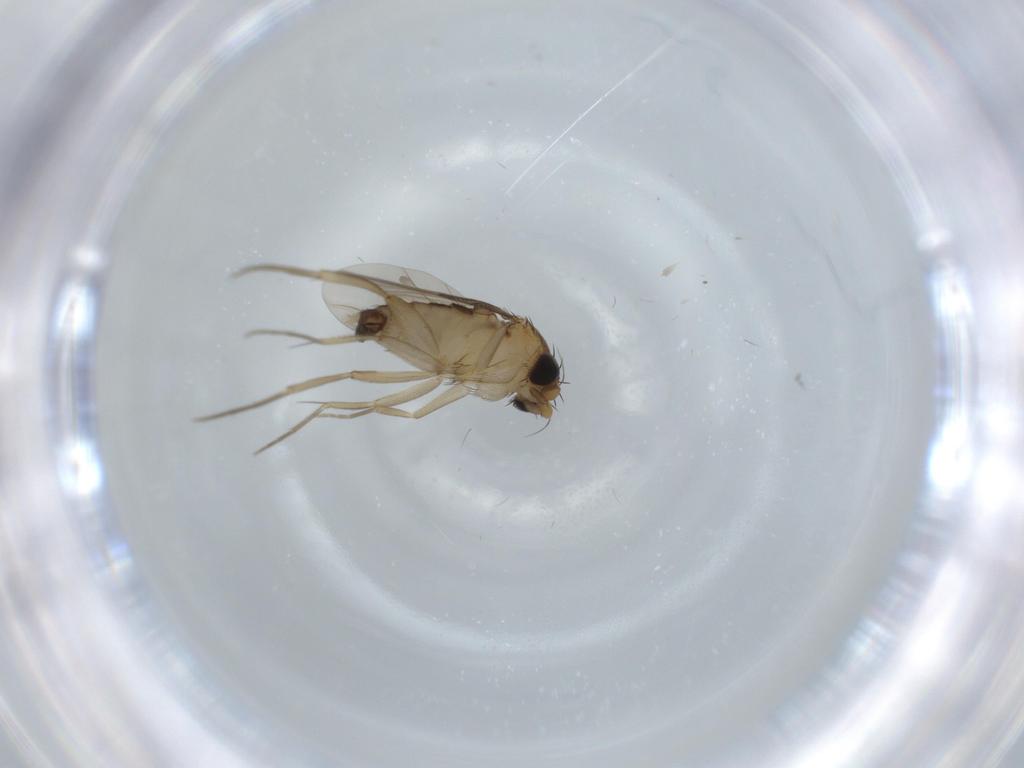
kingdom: Animalia
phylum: Arthropoda
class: Insecta
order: Diptera
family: Phoridae
